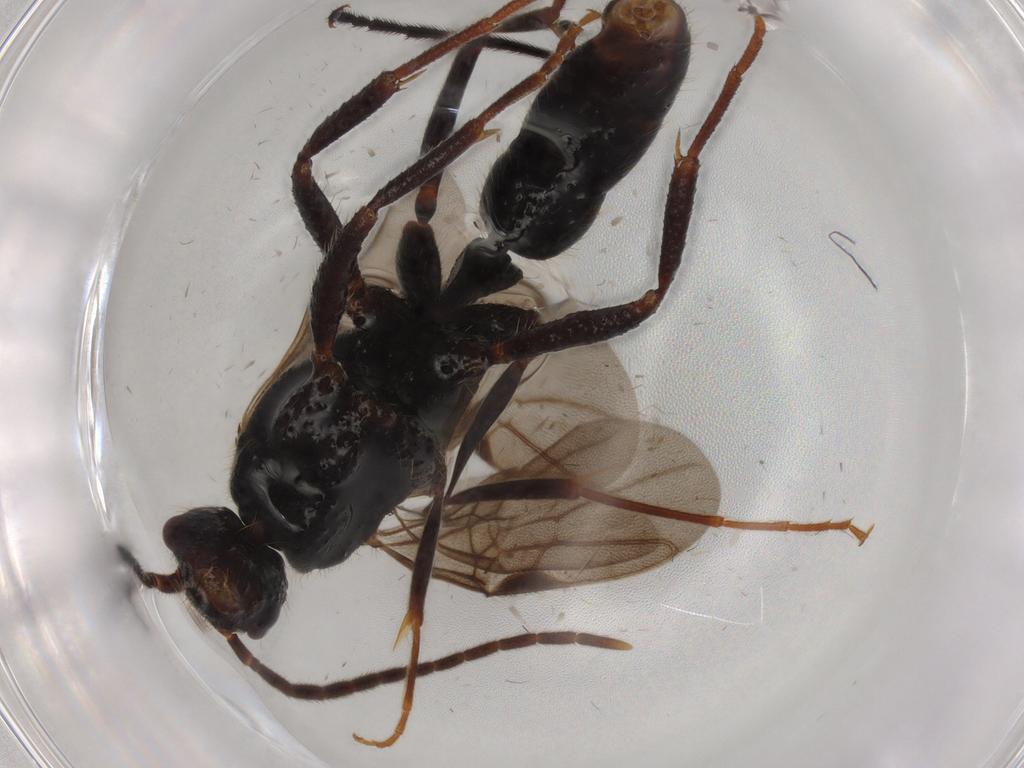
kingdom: Animalia
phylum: Arthropoda
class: Insecta
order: Hymenoptera
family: Formicidae
